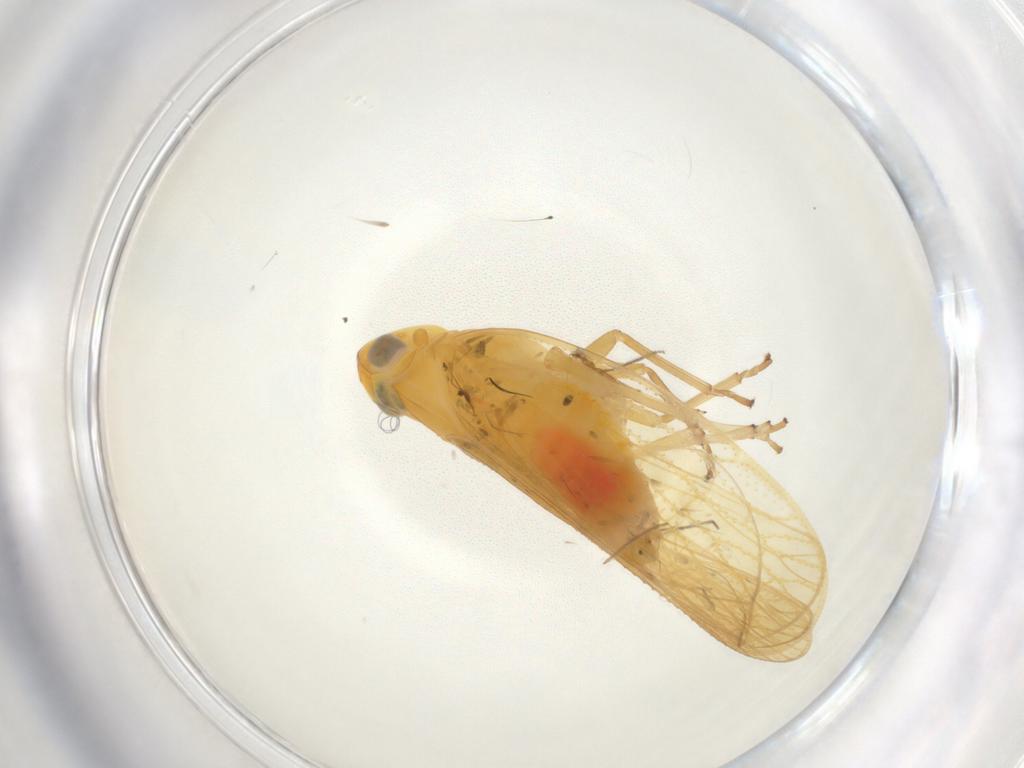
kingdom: Animalia
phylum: Arthropoda
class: Insecta
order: Hemiptera
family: Cixiidae
